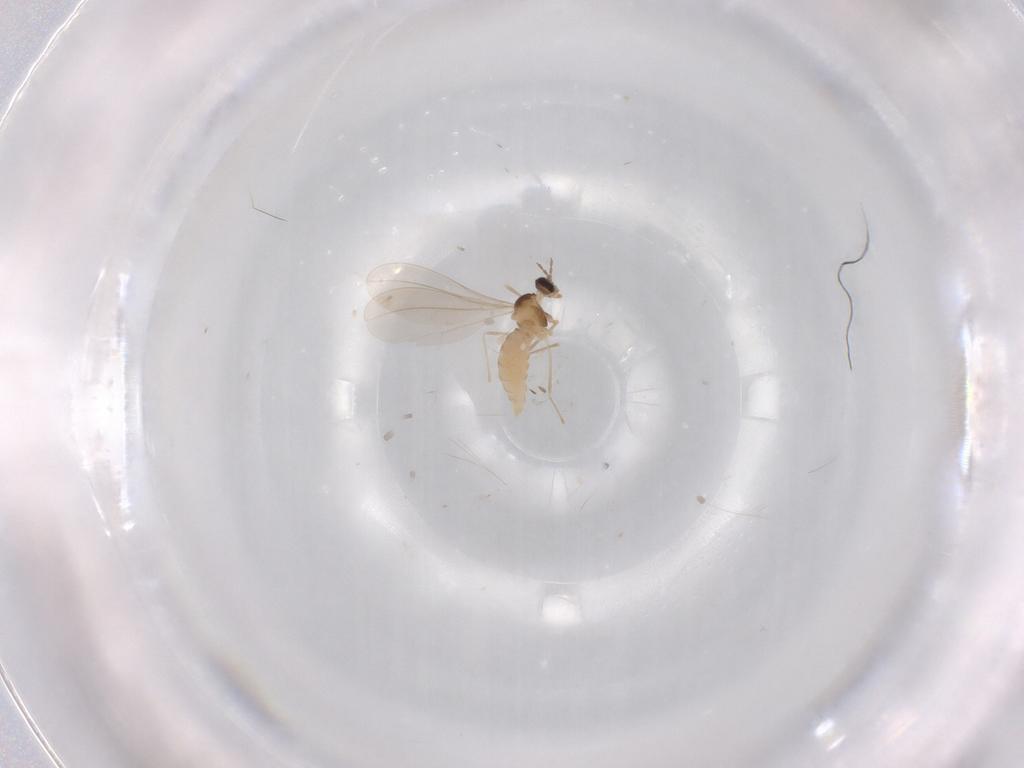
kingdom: Animalia
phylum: Arthropoda
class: Insecta
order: Diptera
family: Cecidomyiidae
